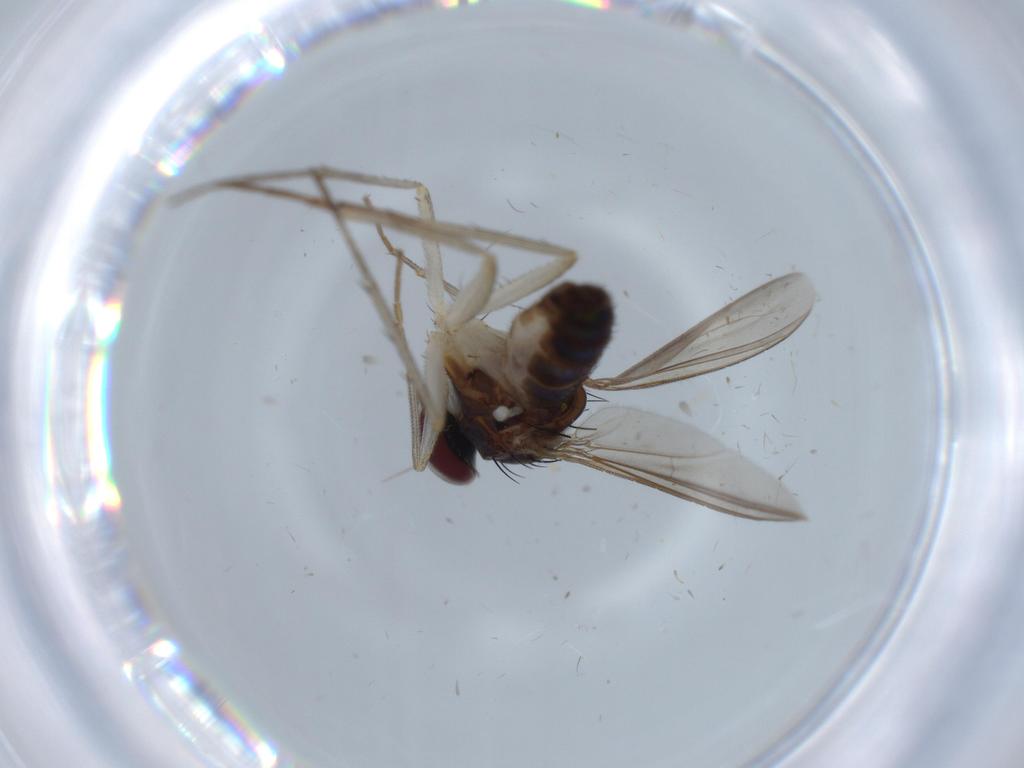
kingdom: Animalia
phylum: Arthropoda
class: Insecta
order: Diptera
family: Dolichopodidae
